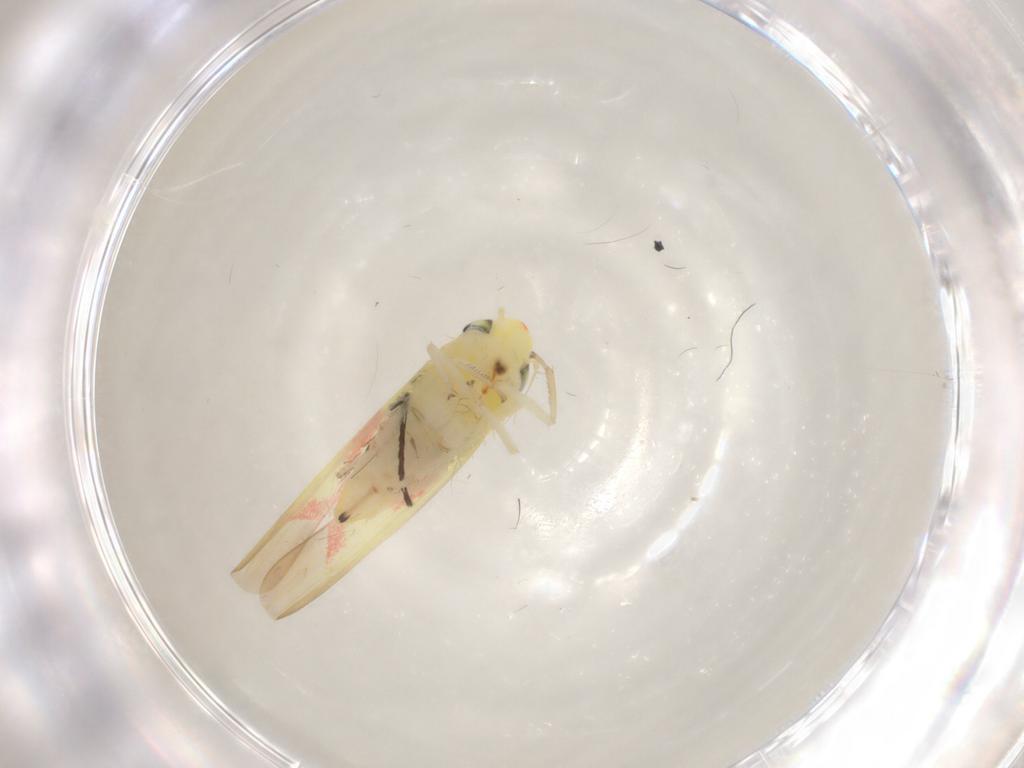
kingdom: Animalia
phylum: Arthropoda
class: Insecta
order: Hemiptera
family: Cicadellidae
